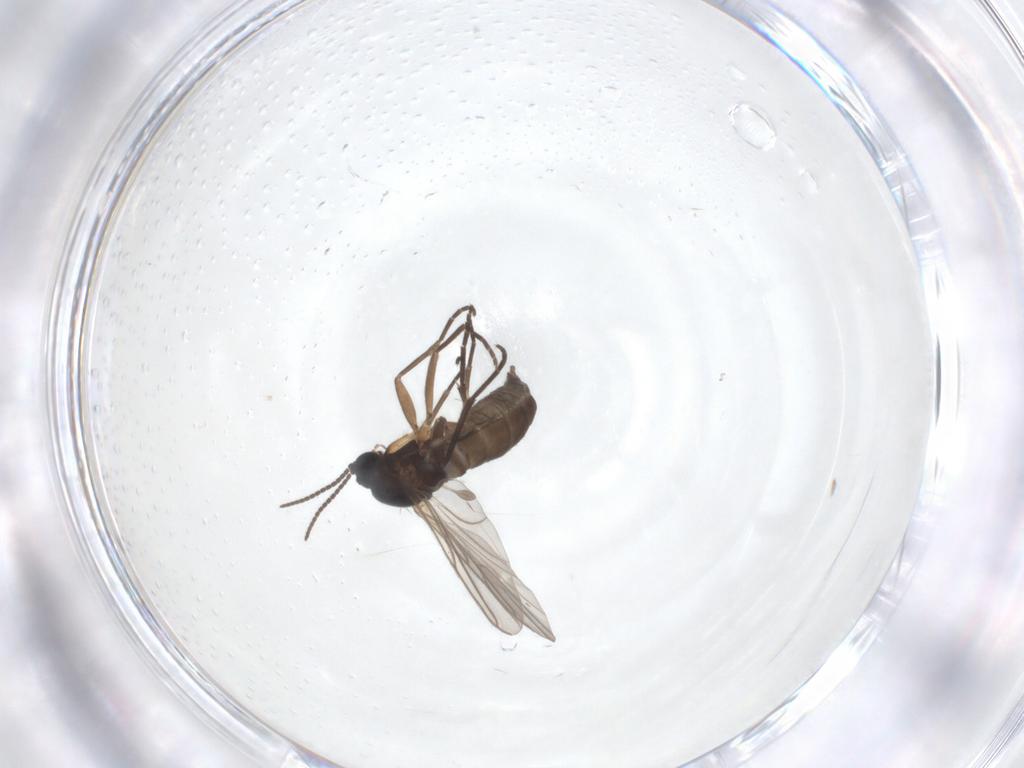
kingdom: Animalia
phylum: Arthropoda
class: Insecta
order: Diptera
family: Sciaridae
